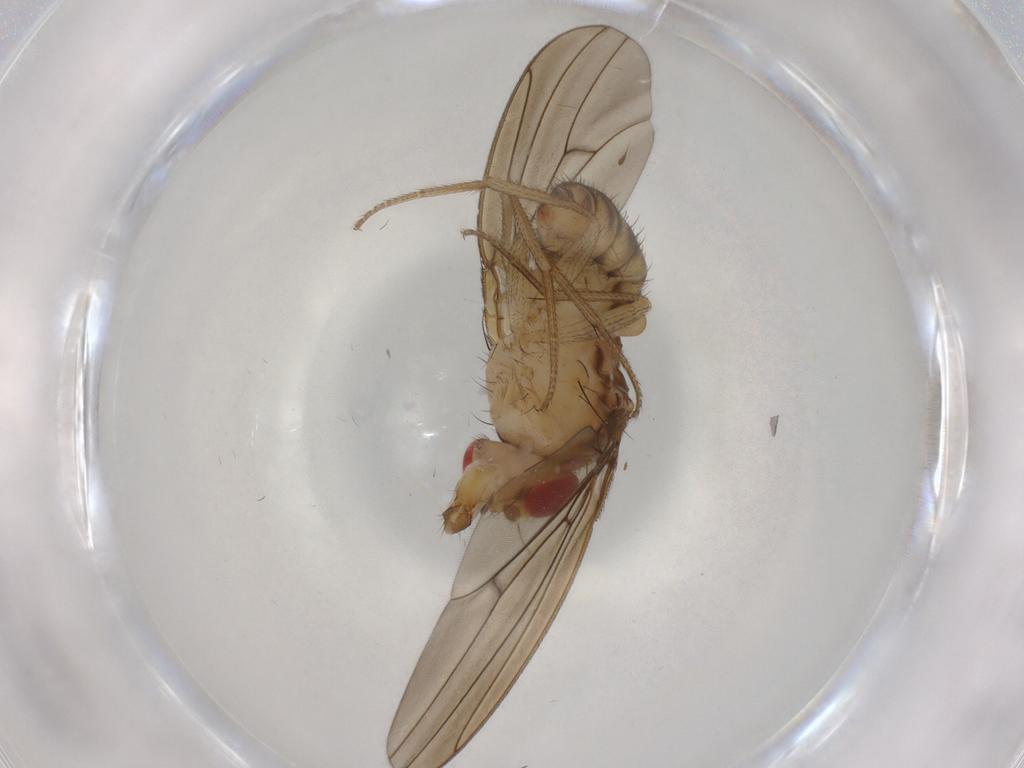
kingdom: Animalia
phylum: Arthropoda
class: Insecta
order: Diptera
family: Drosophilidae
